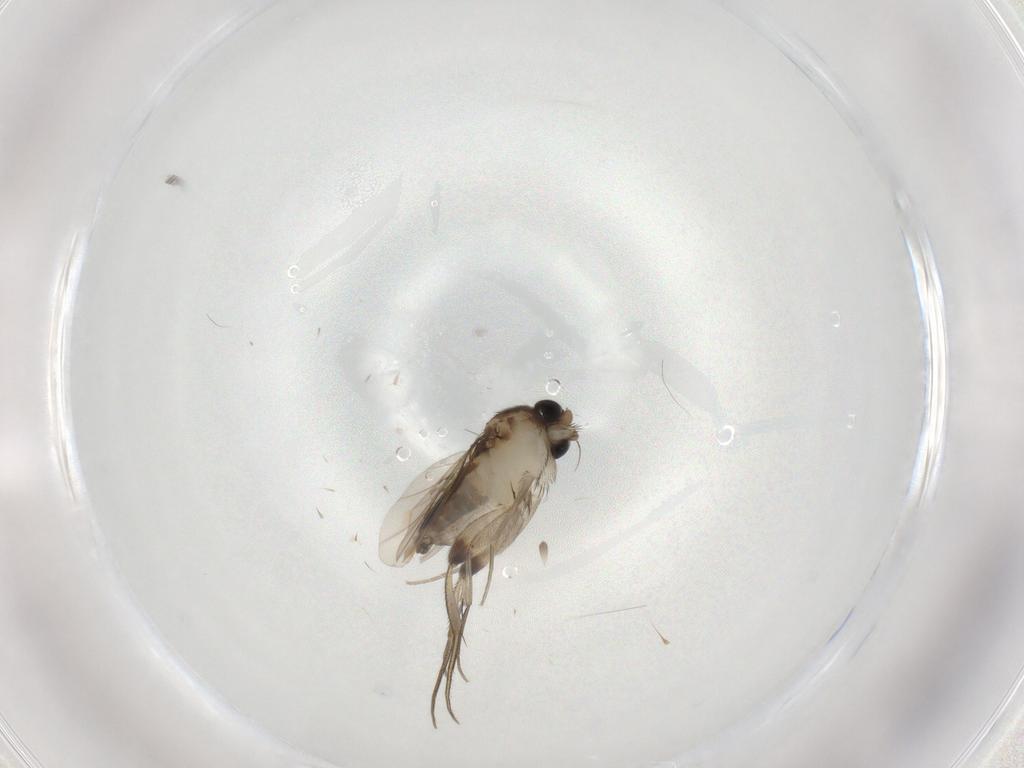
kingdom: Animalia
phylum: Arthropoda
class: Insecta
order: Diptera
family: Phoridae
